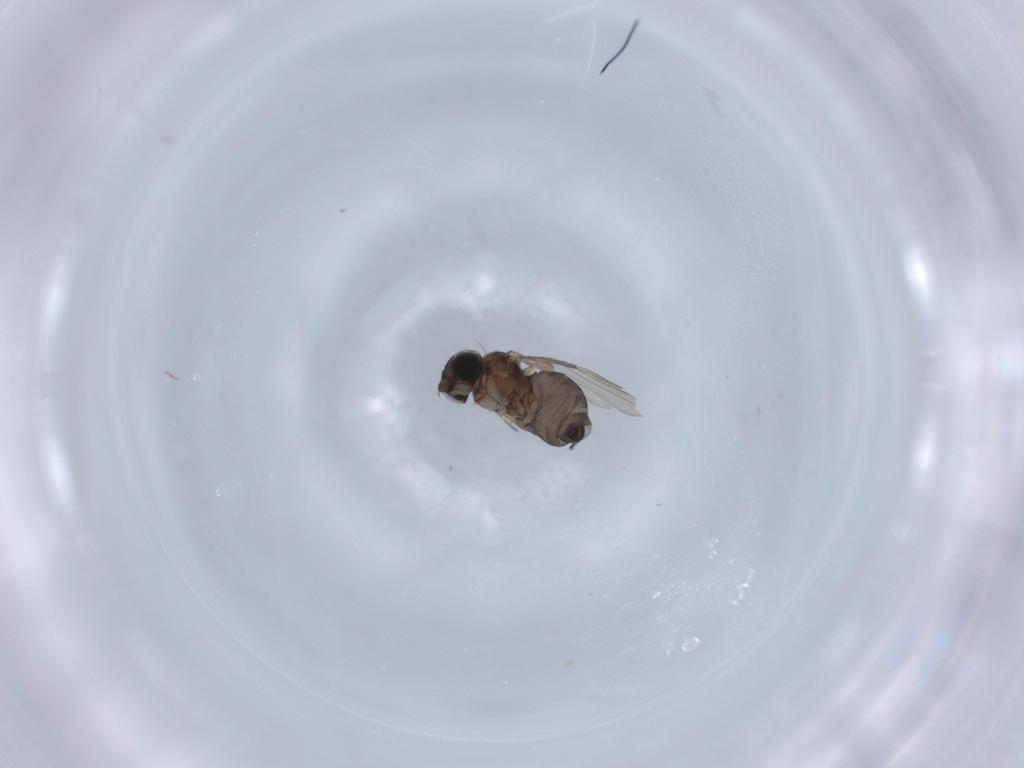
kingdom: Animalia
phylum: Arthropoda
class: Insecta
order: Diptera
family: Phoridae
